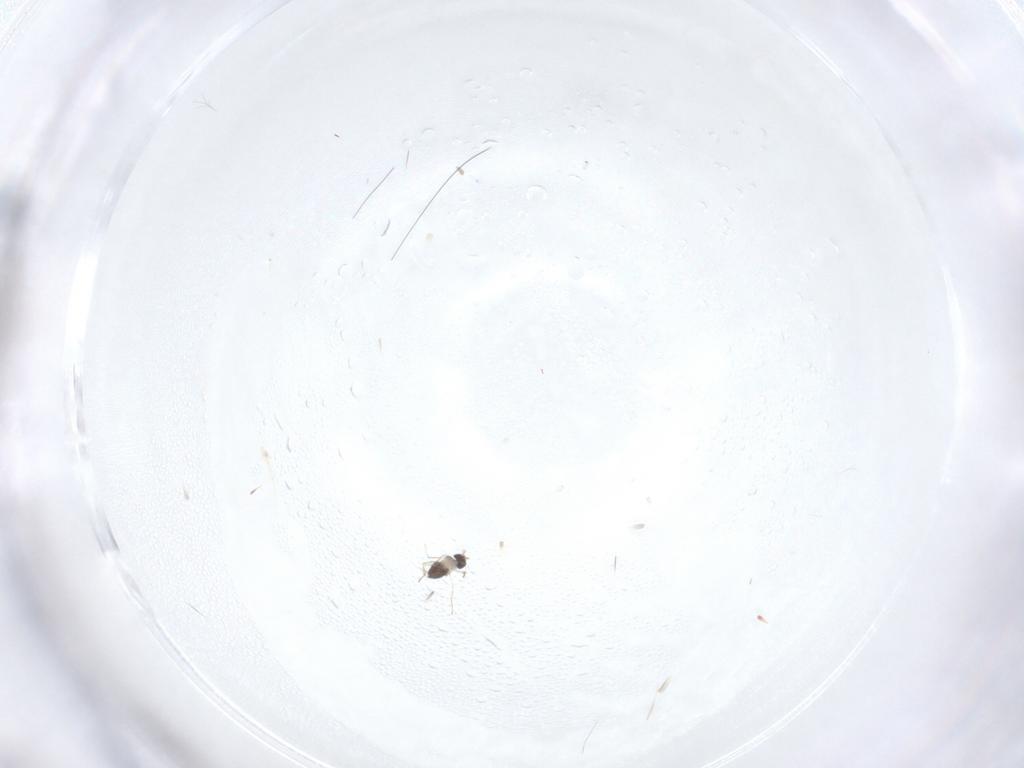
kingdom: Animalia
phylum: Arthropoda
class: Insecta
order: Hymenoptera
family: Mymaridae
